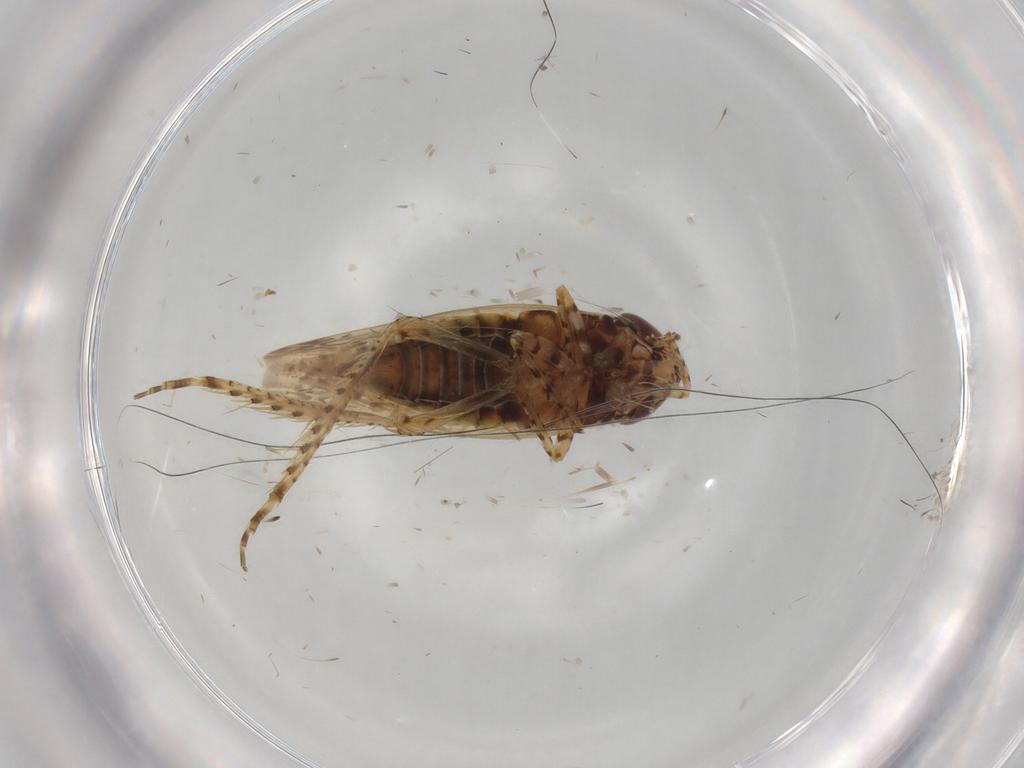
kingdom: Animalia
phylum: Arthropoda
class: Insecta
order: Hemiptera
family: Cicadellidae
